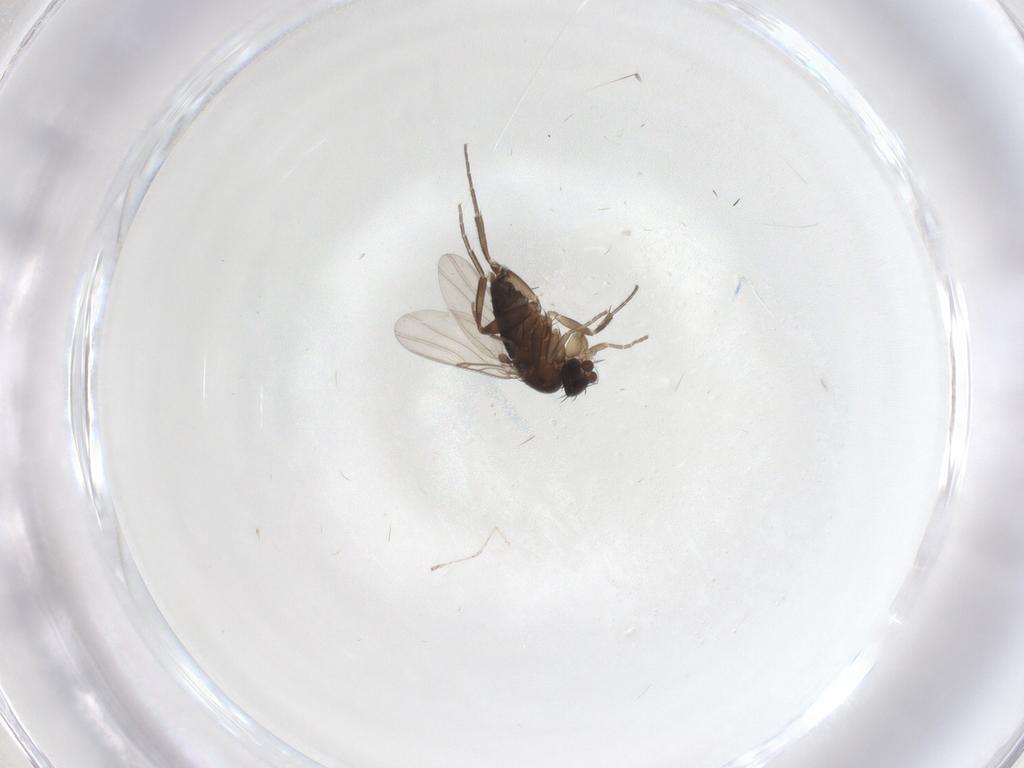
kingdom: Animalia
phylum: Arthropoda
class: Insecta
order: Diptera
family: Phoridae
